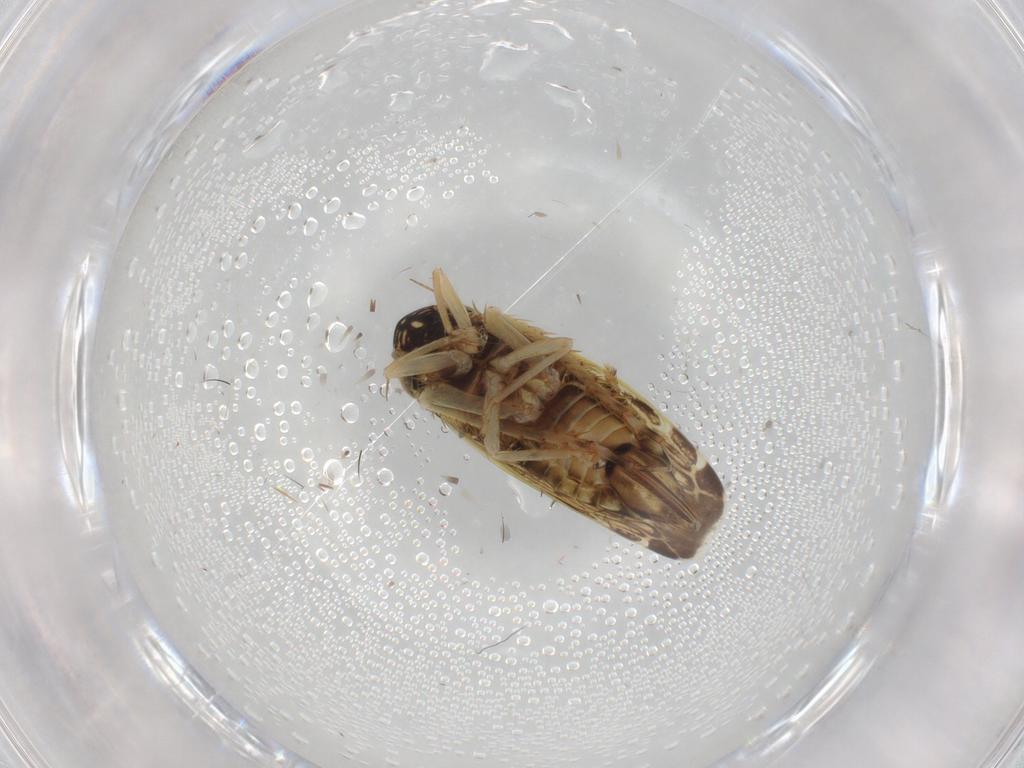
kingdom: Animalia
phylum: Arthropoda
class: Insecta
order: Hemiptera
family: Cicadellidae
